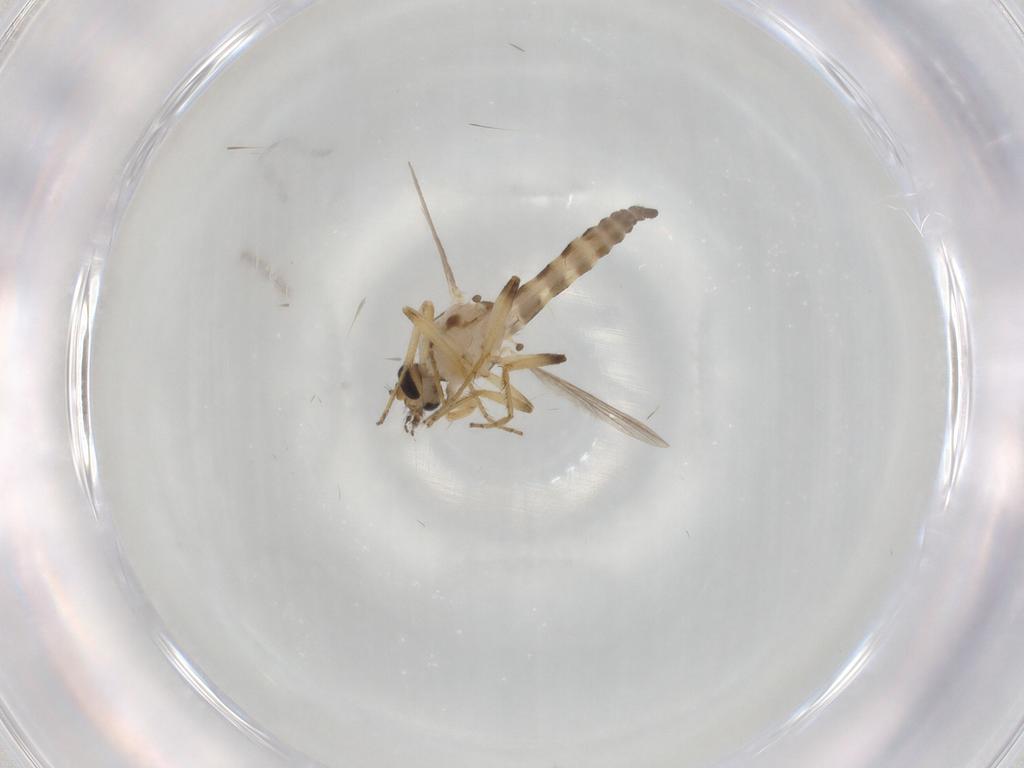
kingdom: Animalia
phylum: Arthropoda
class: Insecta
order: Diptera
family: Ceratopogonidae
